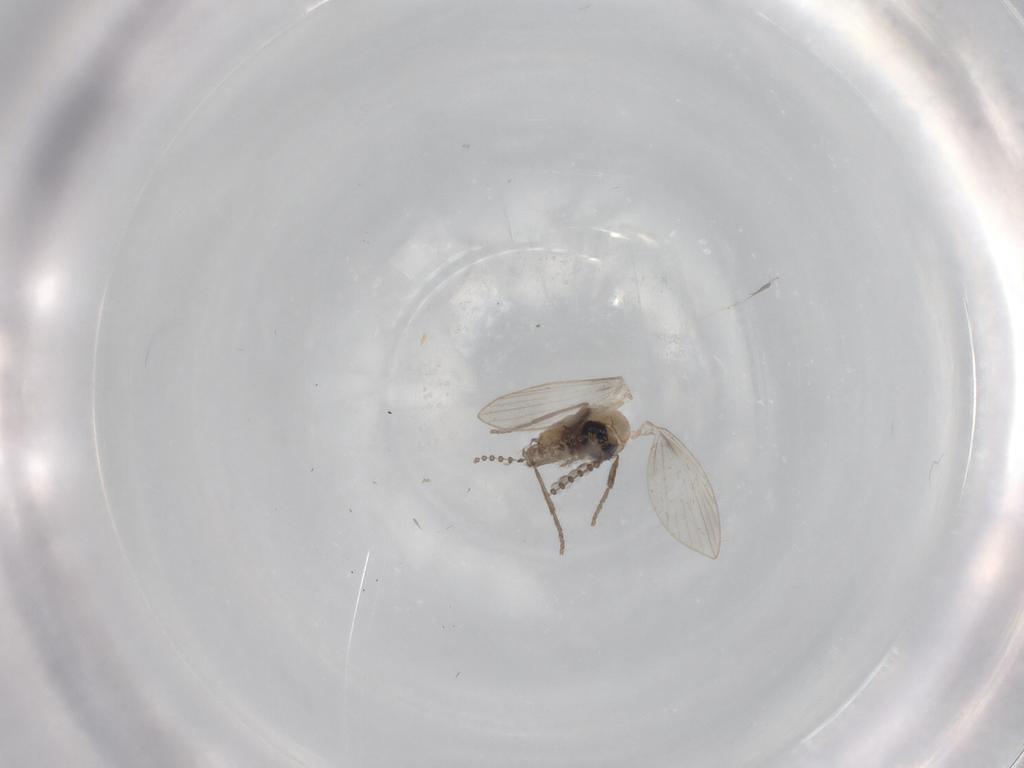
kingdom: Animalia
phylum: Arthropoda
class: Insecta
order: Diptera
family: Psychodidae
